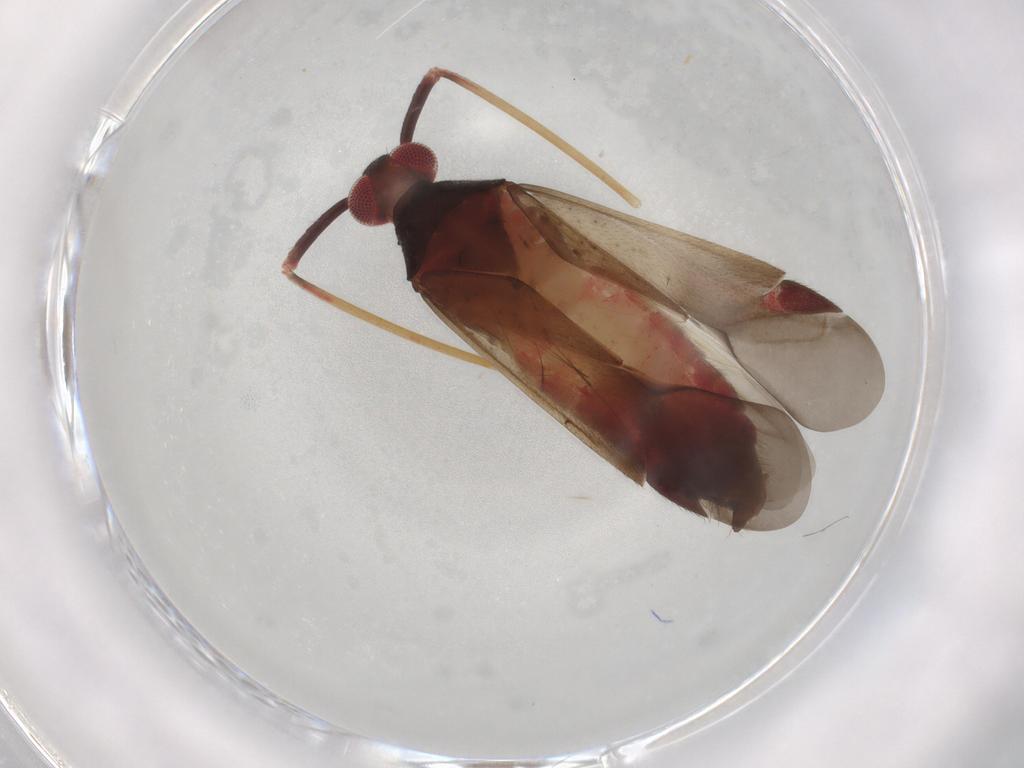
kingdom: Animalia
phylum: Arthropoda
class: Insecta
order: Hemiptera
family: Miridae
